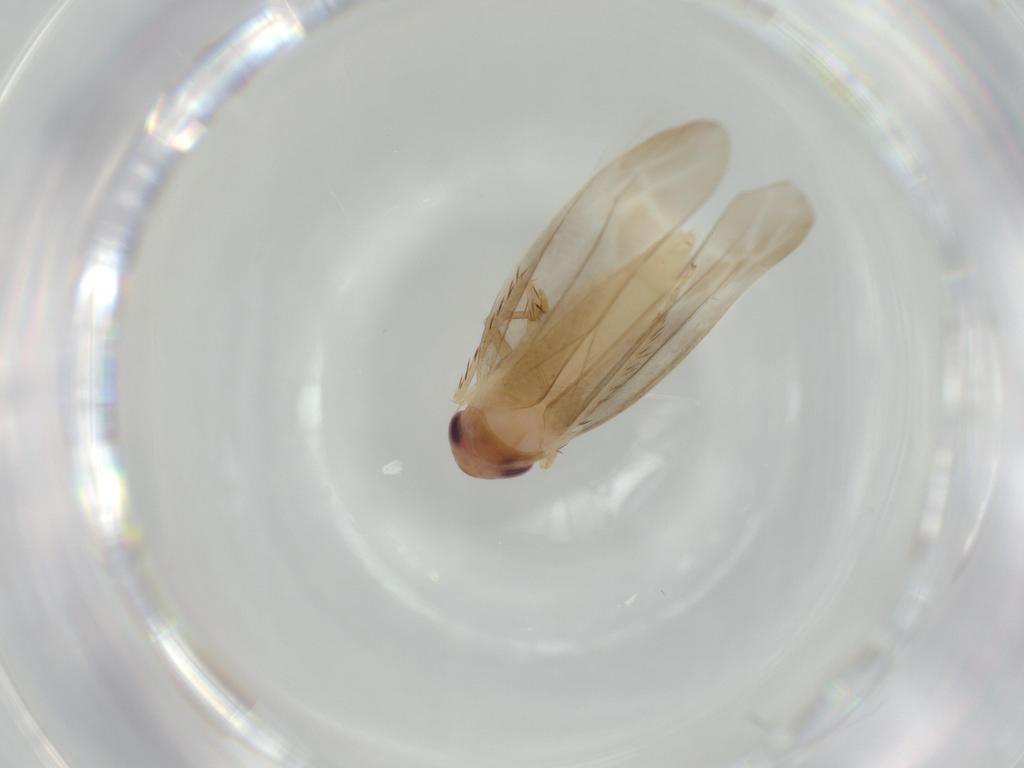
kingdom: Animalia
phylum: Arthropoda
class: Insecta
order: Hemiptera
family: Cicadellidae
